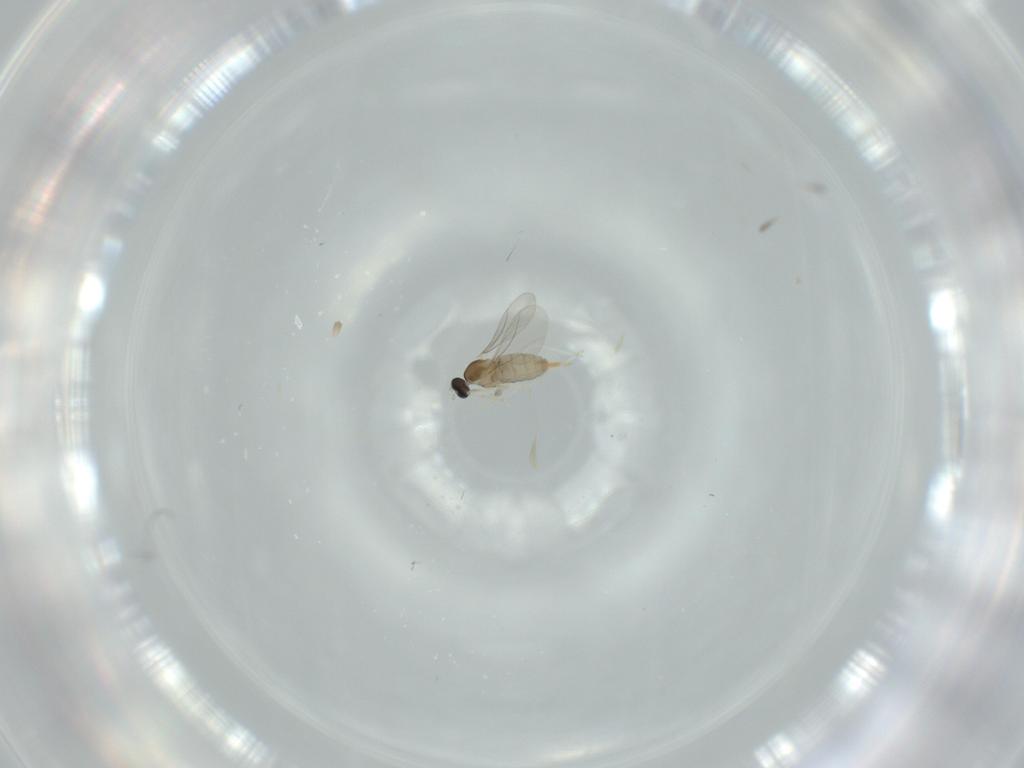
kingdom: Animalia
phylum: Arthropoda
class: Insecta
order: Diptera
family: Cecidomyiidae
